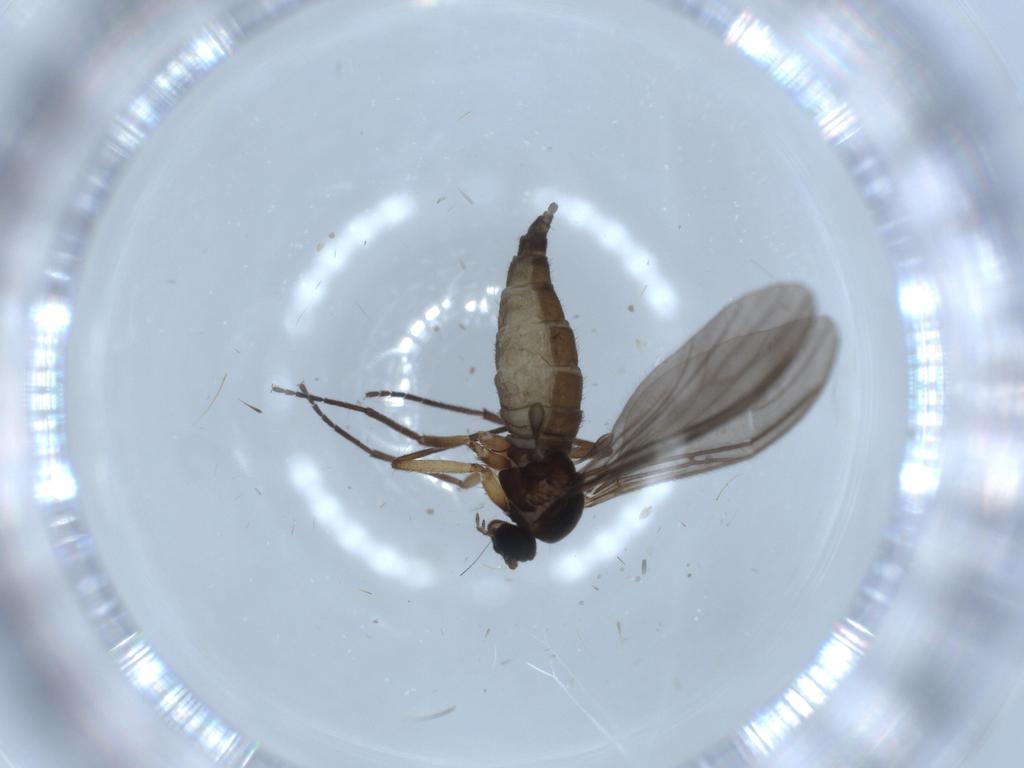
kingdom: Animalia
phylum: Arthropoda
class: Insecta
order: Diptera
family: Sciaridae
